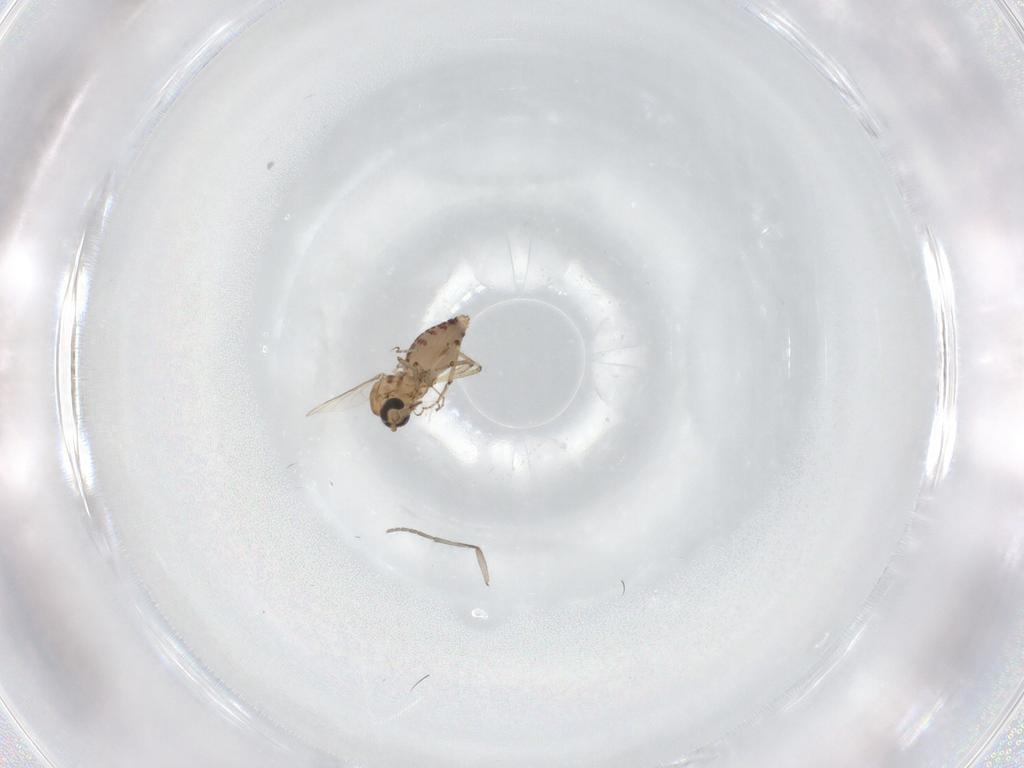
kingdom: Animalia
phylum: Arthropoda
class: Insecta
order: Diptera
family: Ceratopogonidae
